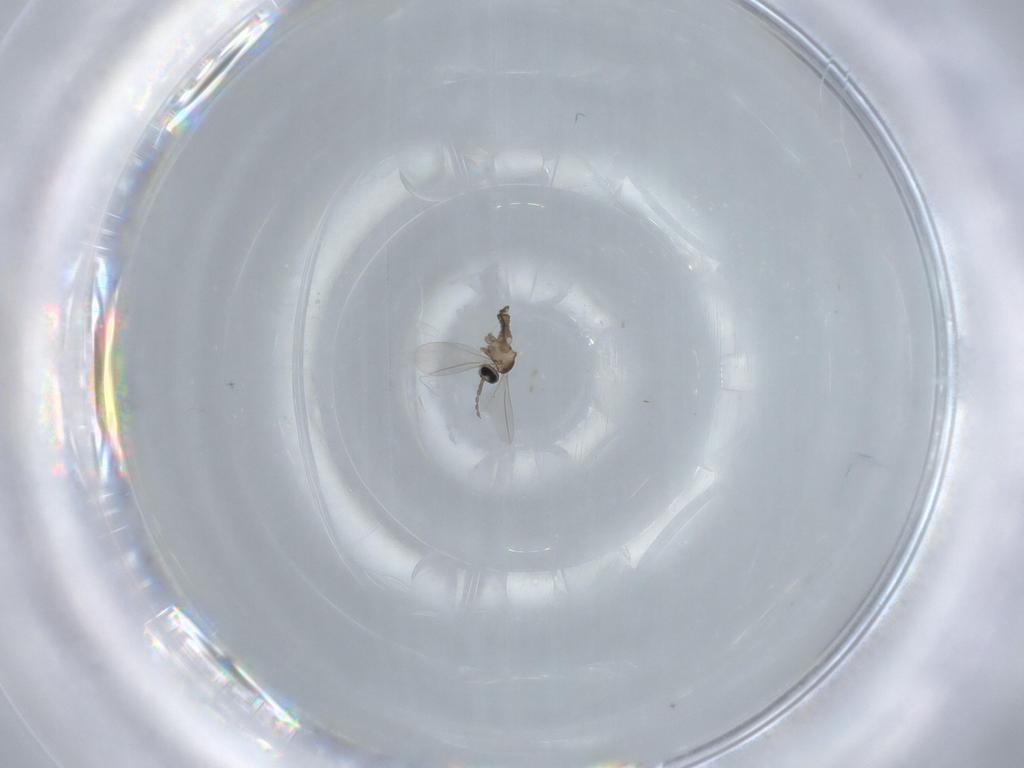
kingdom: Animalia
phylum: Arthropoda
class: Insecta
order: Diptera
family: Cecidomyiidae
